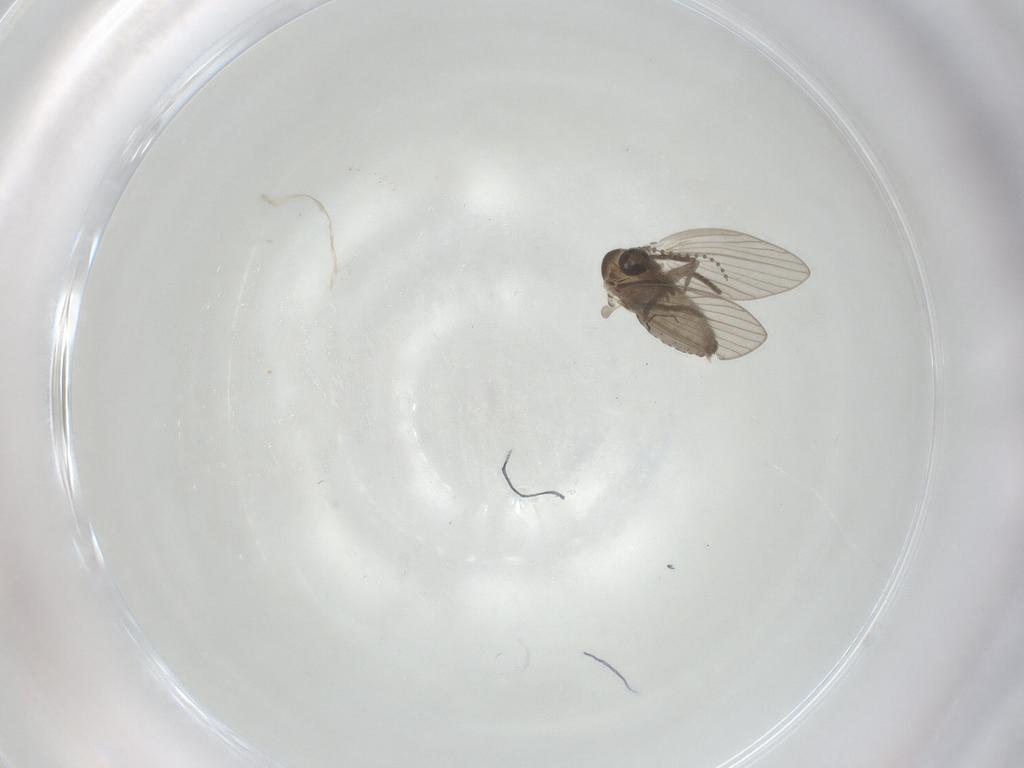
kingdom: Animalia
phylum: Arthropoda
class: Insecta
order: Diptera
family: Psychodidae
